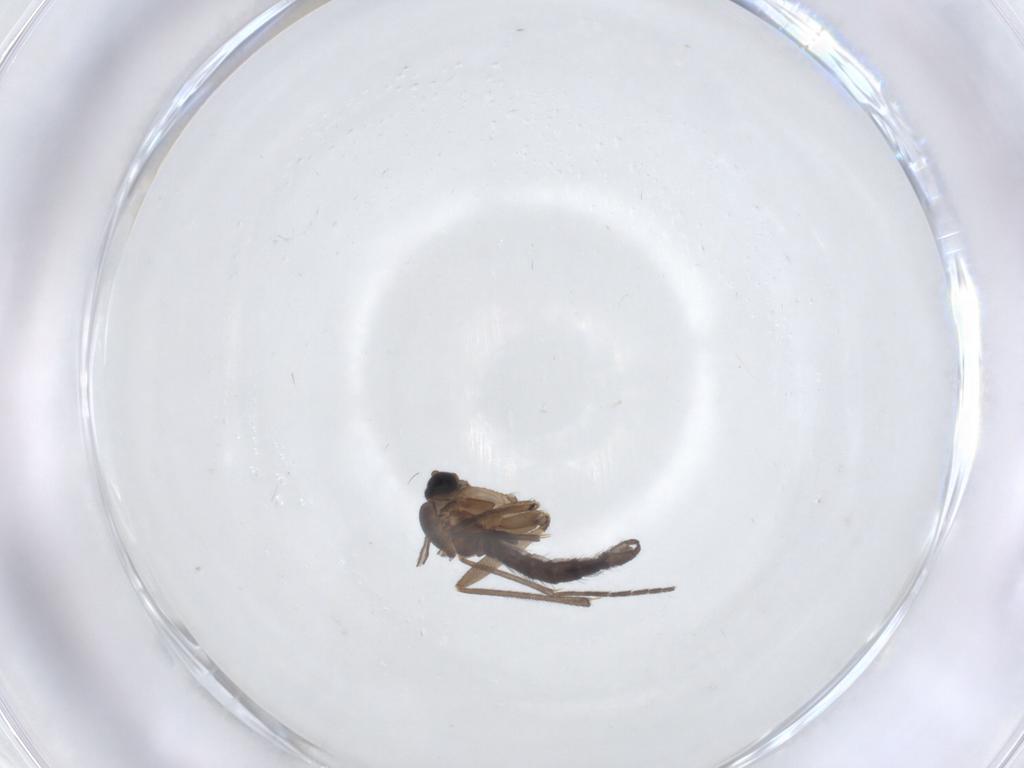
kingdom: Animalia
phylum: Arthropoda
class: Insecta
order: Diptera
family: Sciaridae
